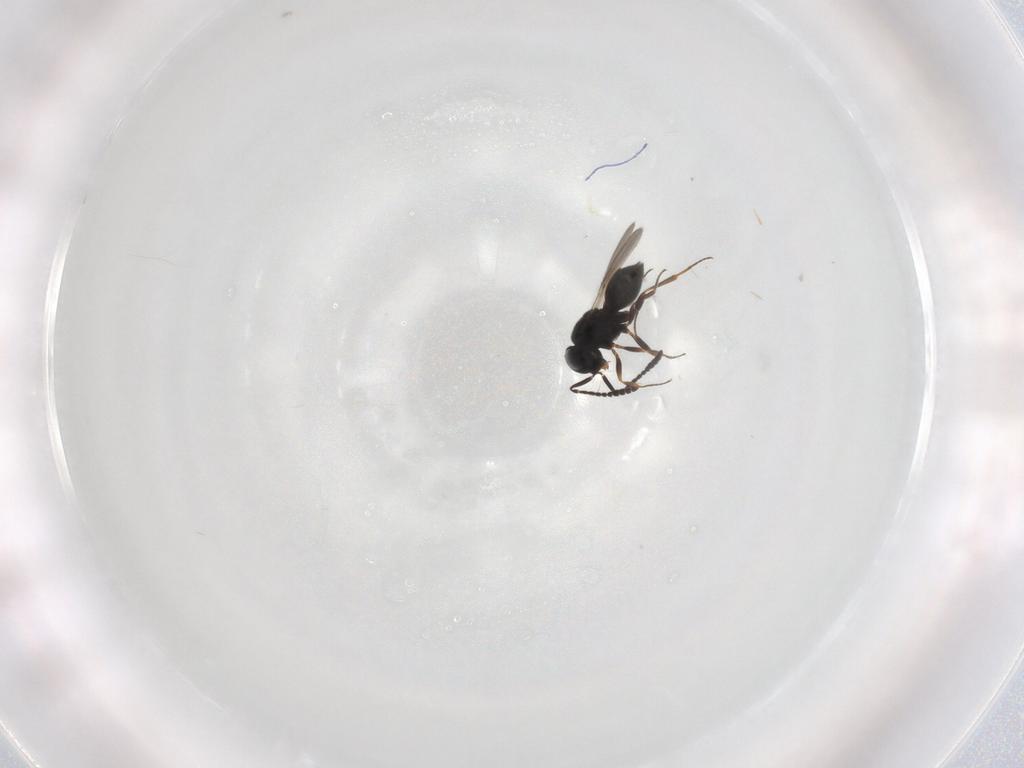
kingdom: Animalia
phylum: Arthropoda
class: Insecta
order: Hymenoptera
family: Scelionidae
